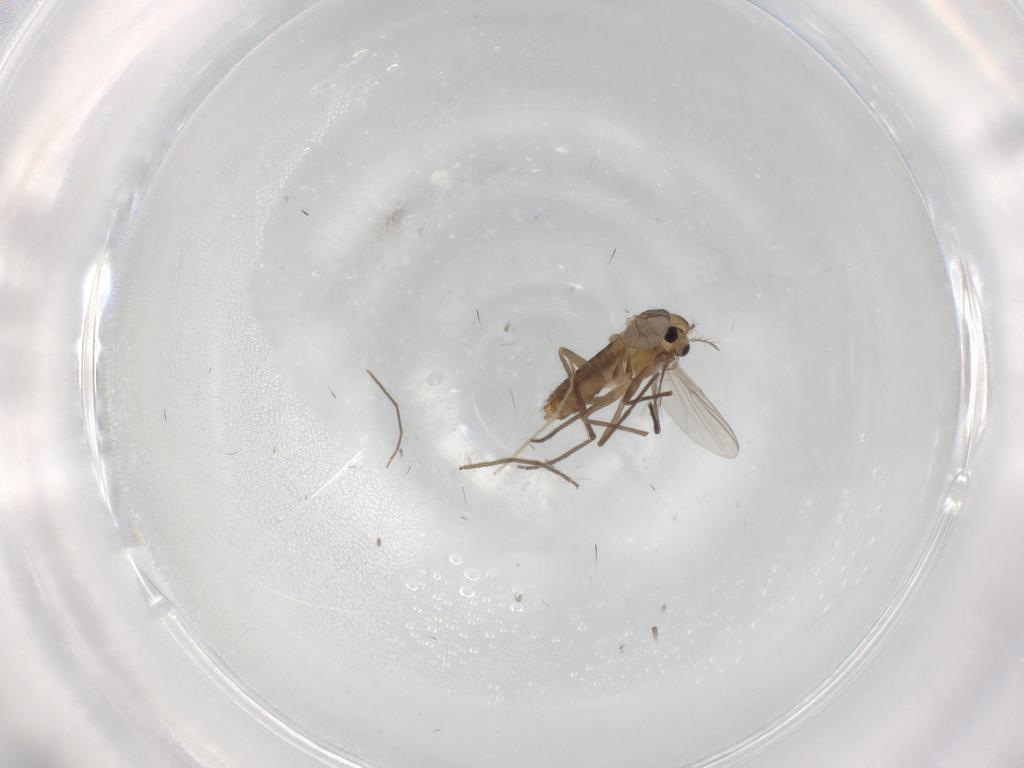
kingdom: Animalia
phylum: Arthropoda
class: Insecta
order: Diptera
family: Chironomidae
